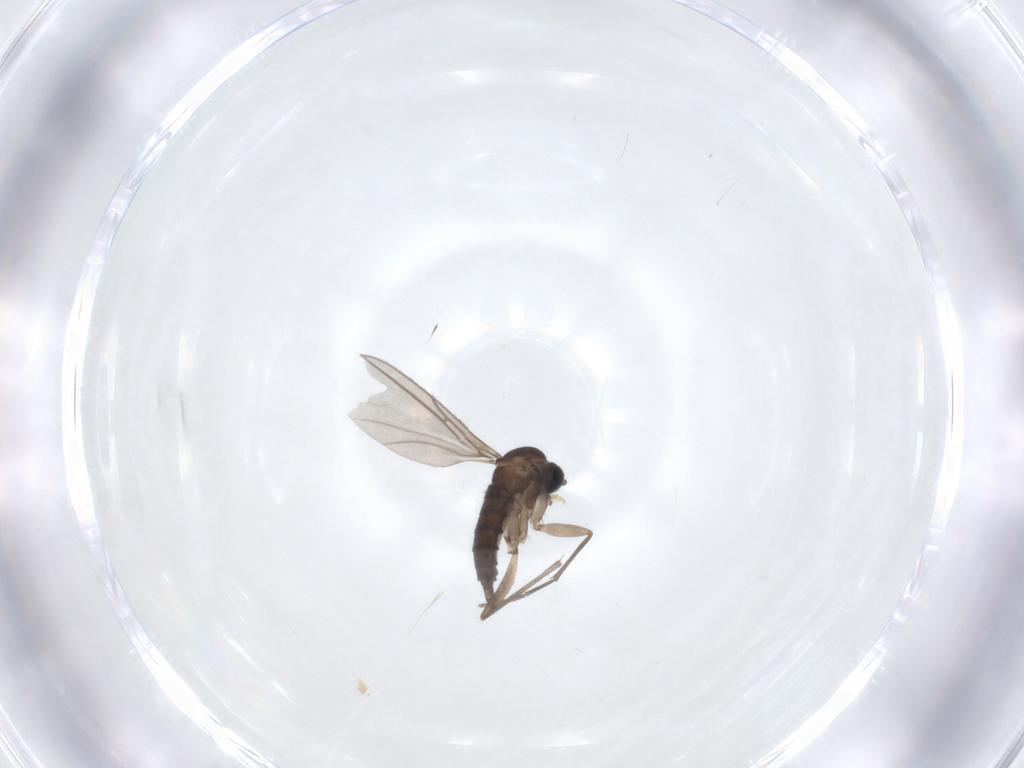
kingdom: Animalia
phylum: Arthropoda
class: Insecta
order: Diptera
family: Sciaridae
